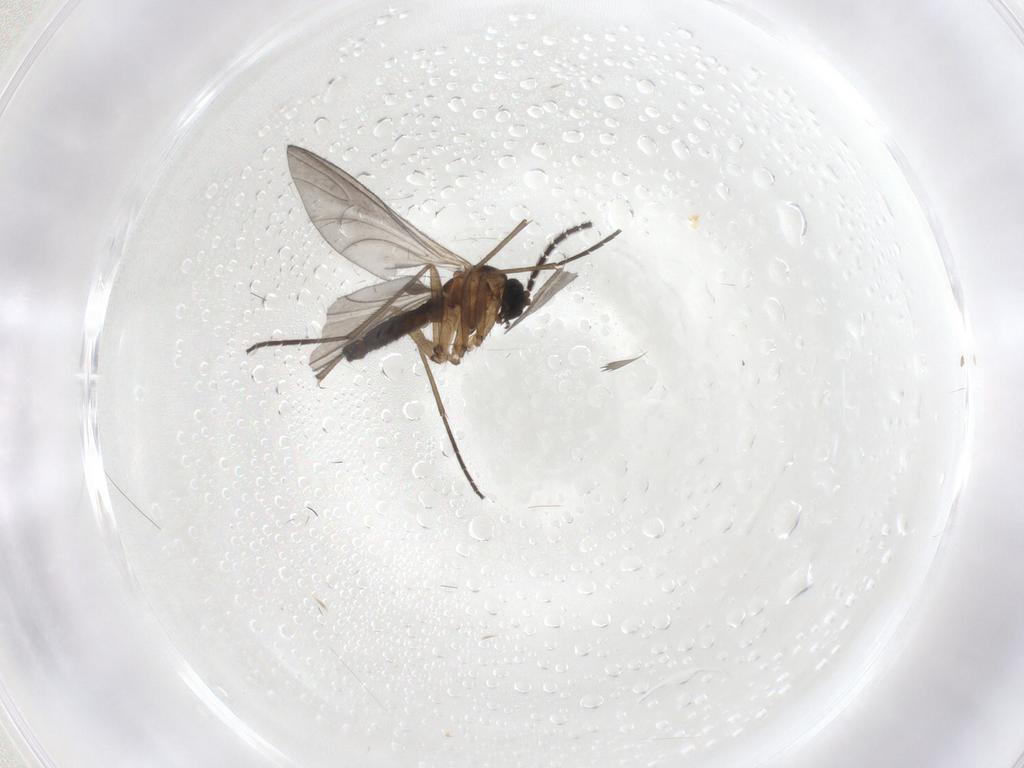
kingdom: Animalia
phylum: Arthropoda
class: Insecta
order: Diptera
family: Sciaridae
